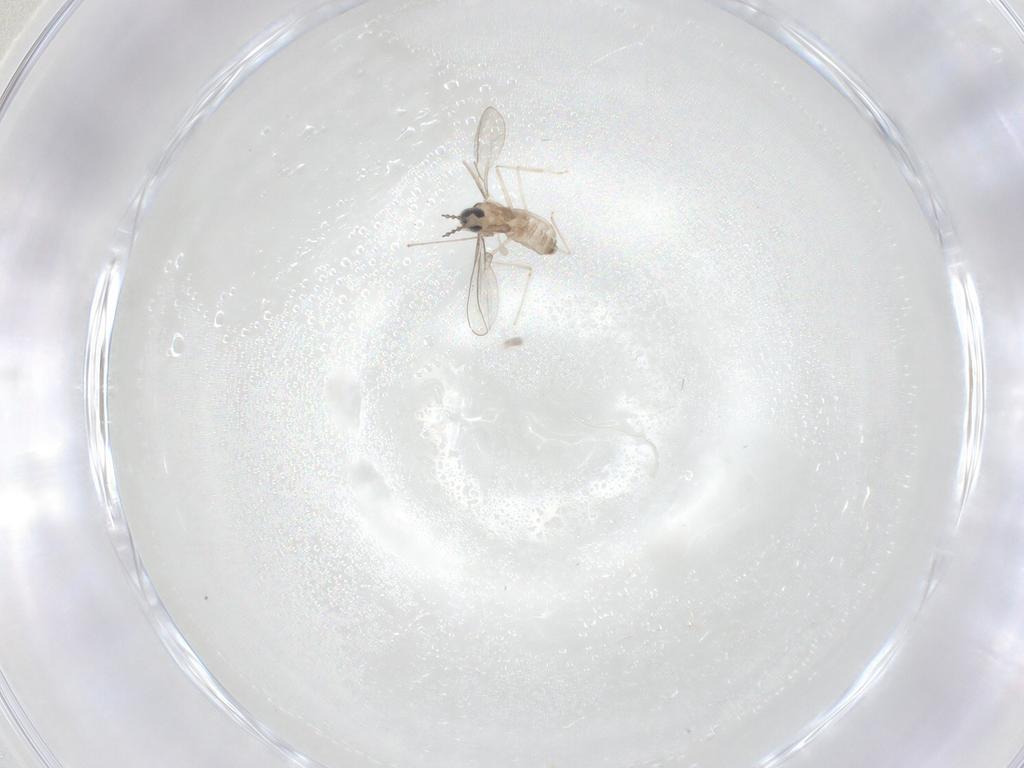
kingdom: Animalia
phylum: Arthropoda
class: Insecta
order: Diptera
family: Cecidomyiidae
